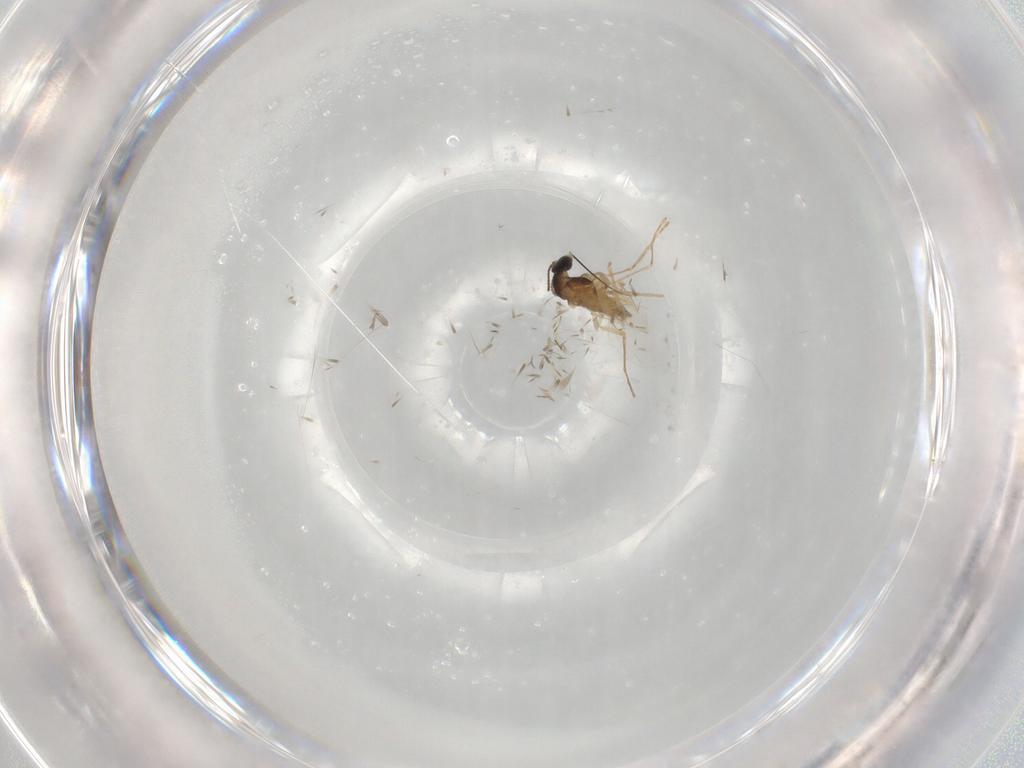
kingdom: Animalia
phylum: Arthropoda
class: Insecta
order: Diptera
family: Cecidomyiidae
